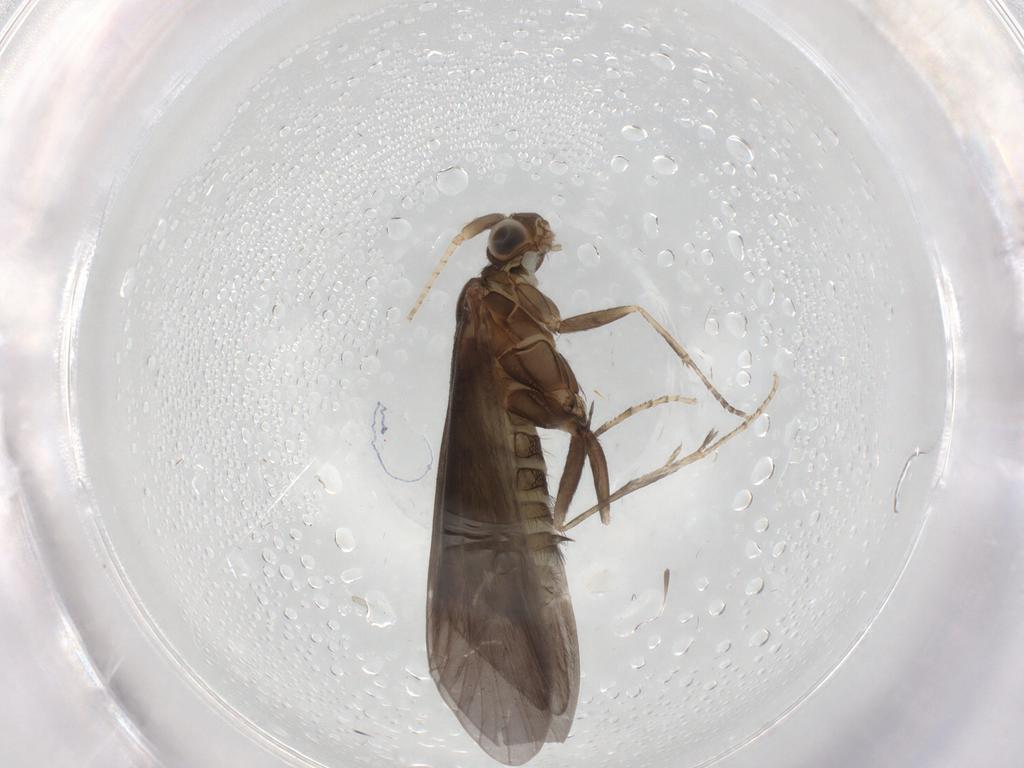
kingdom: Animalia
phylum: Arthropoda
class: Insecta
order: Trichoptera
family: Helicopsychidae
